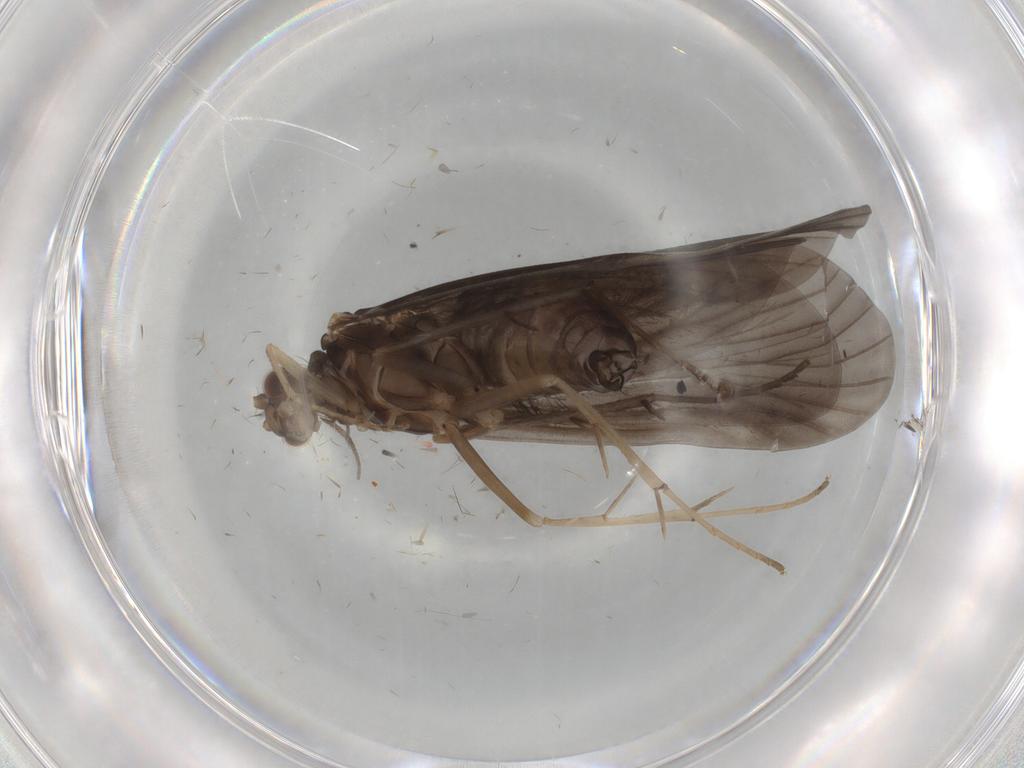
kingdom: Animalia
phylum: Arthropoda
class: Insecta
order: Trichoptera
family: Hydropsychidae
